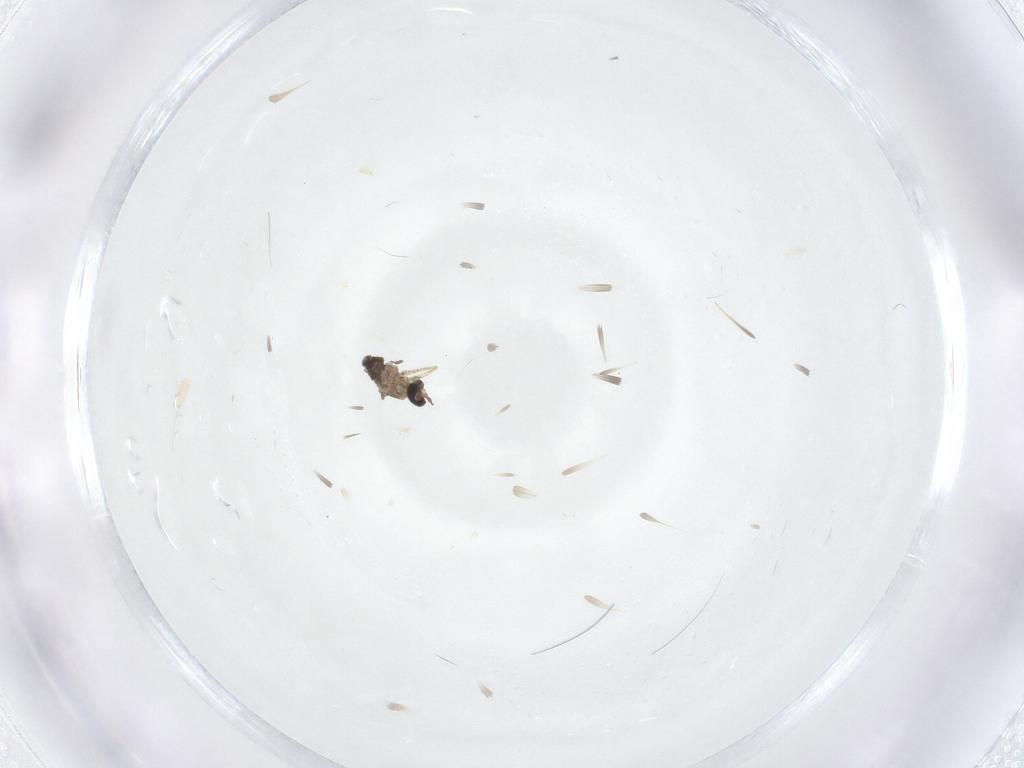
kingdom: Animalia
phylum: Arthropoda
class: Insecta
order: Diptera
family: Cecidomyiidae
